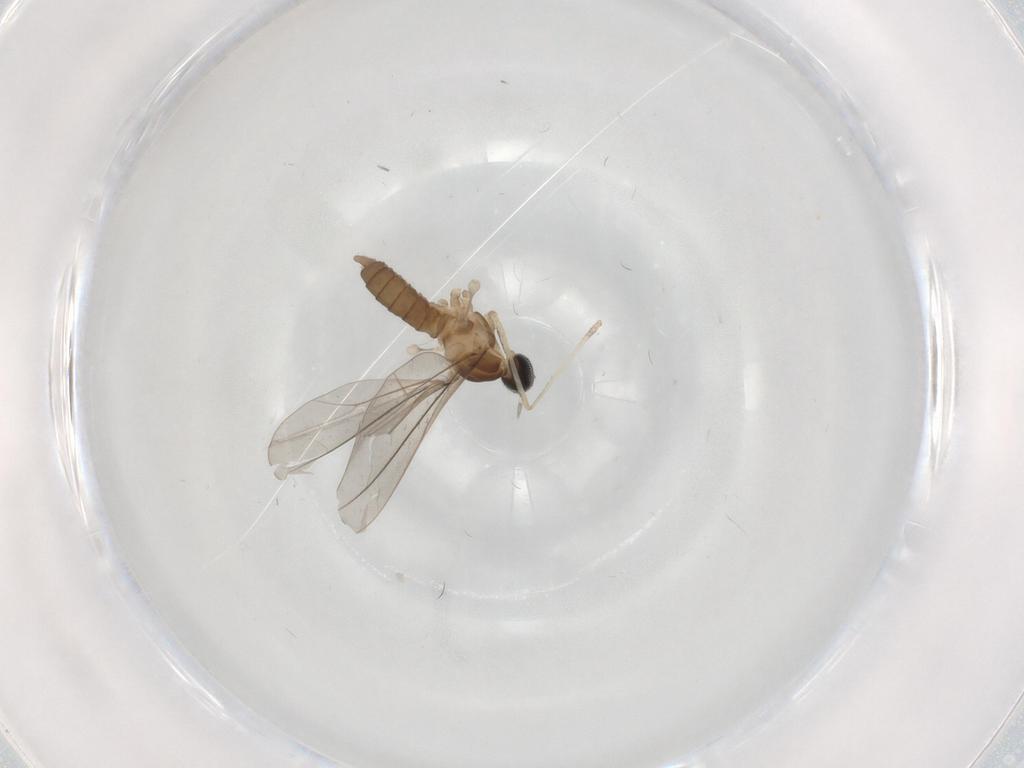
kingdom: Animalia
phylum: Arthropoda
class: Insecta
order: Diptera
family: Cecidomyiidae
